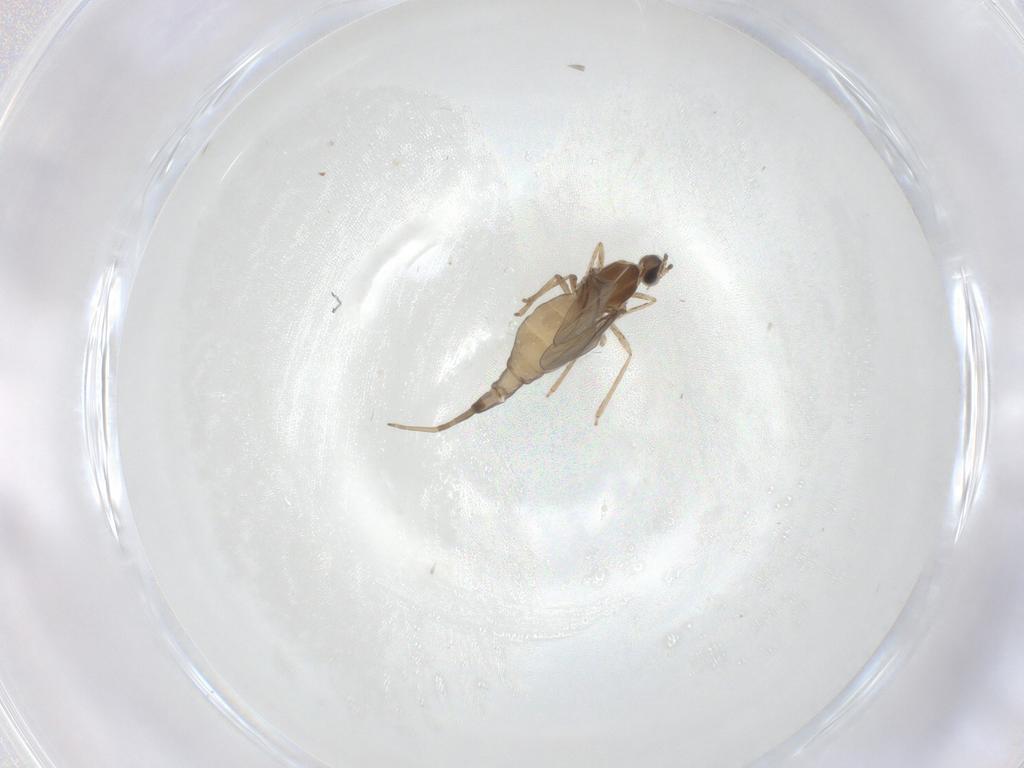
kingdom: Animalia
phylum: Arthropoda
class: Insecta
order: Diptera
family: Cecidomyiidae
